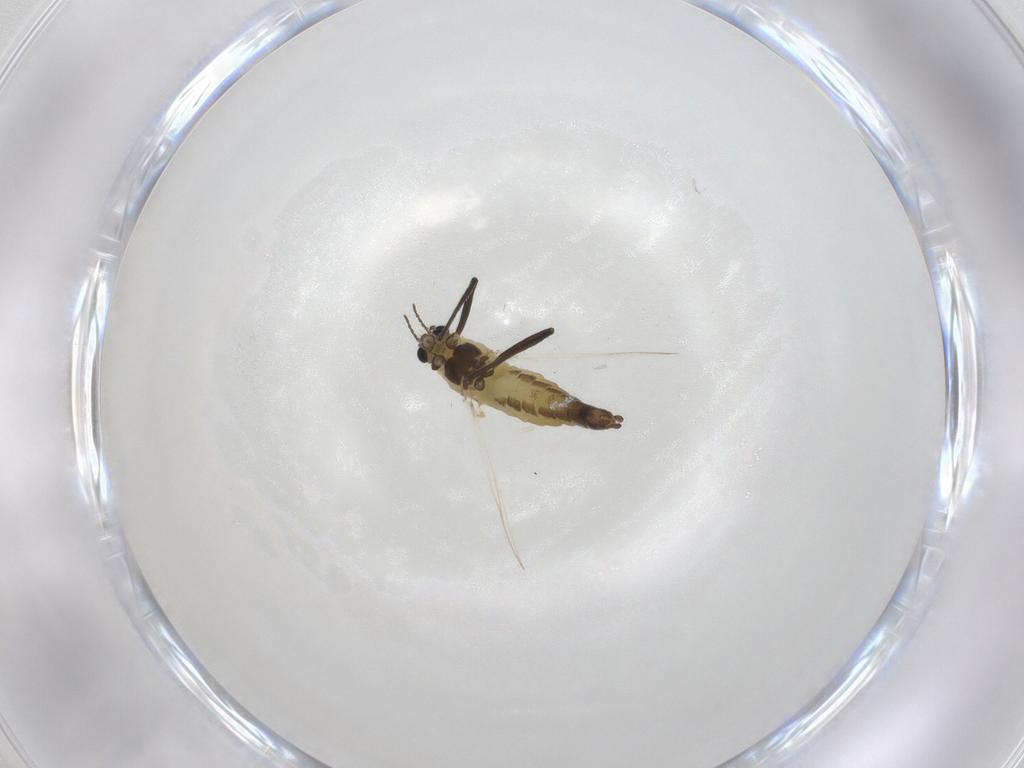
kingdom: Animalia
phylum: Arthropoda
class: Insecta
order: Diptera
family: Chironomidae
